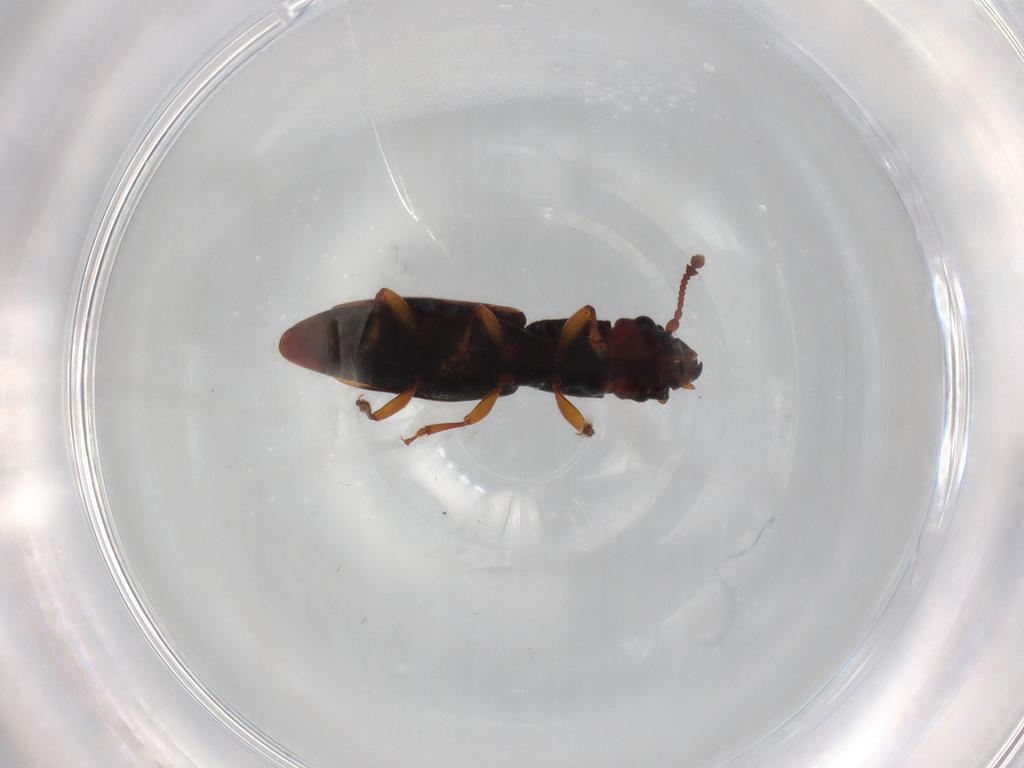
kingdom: Animalia
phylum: Arthropoda
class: Insecta
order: Coleoptera
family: Monotomidae
